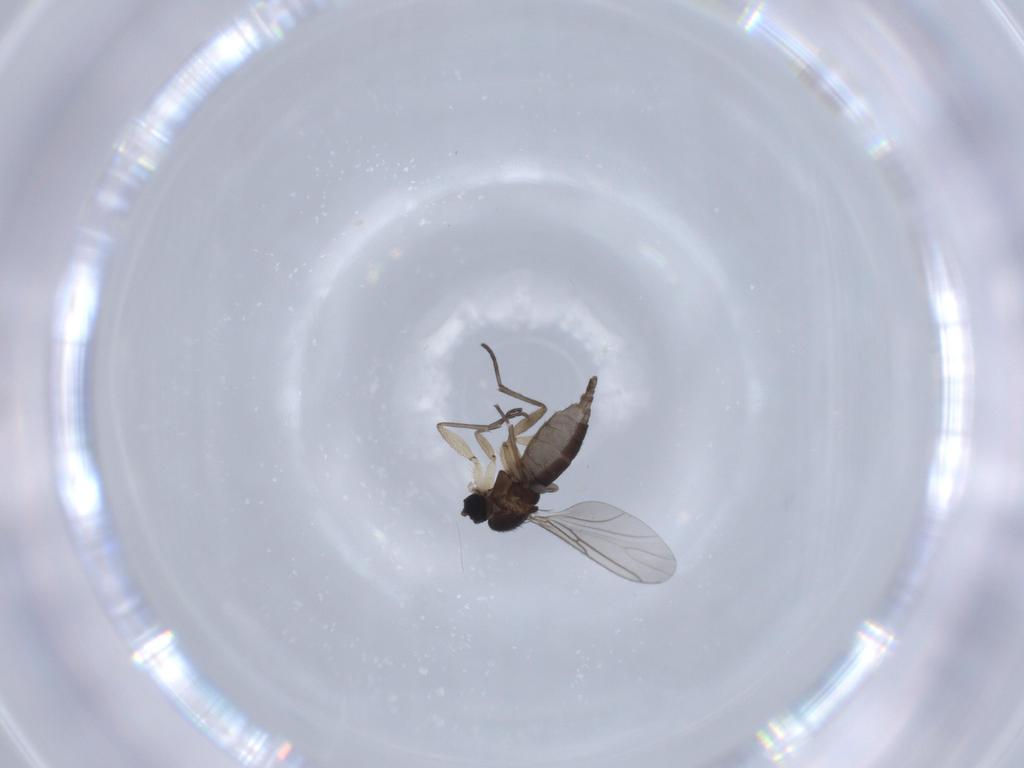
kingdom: Animalia
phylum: Arthropoda
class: Insecta
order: Diptera
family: Sciaridae
